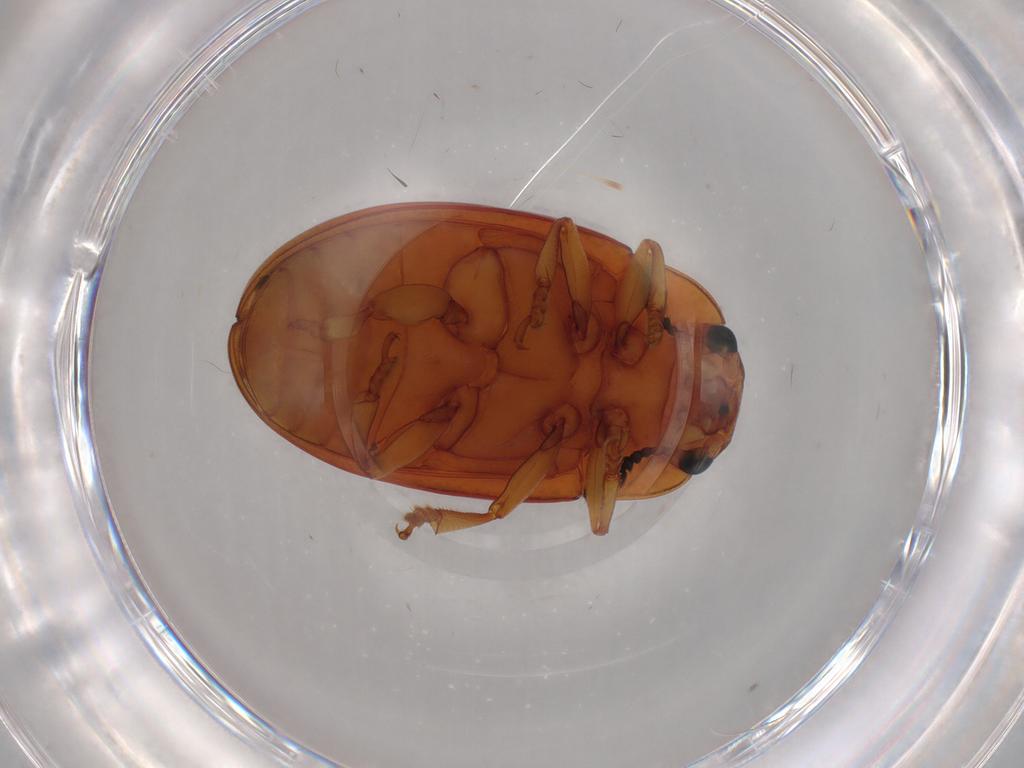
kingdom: Animalia
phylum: Arthropoda
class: Insecta
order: Coleoptera
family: Erotylidae
